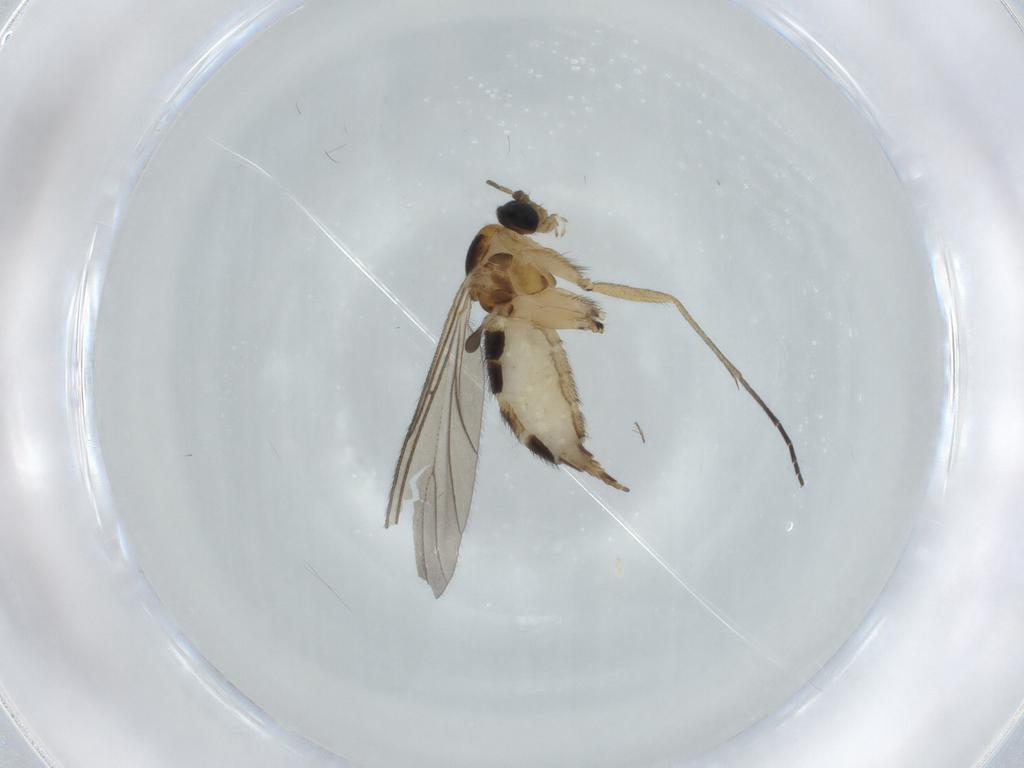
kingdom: Animalia
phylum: Arthropoda
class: Insecta
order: Diptera
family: Sciaridae
